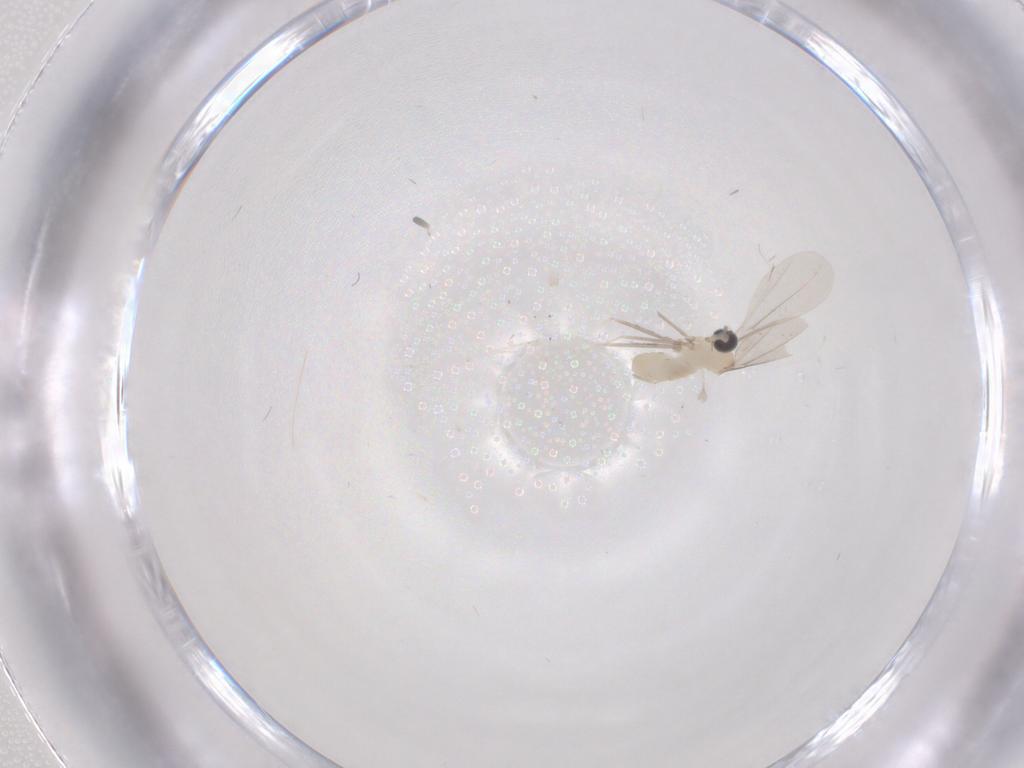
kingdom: Animalia
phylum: Arthropoda
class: Insecta
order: Diptera
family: Cecidomyiidae
